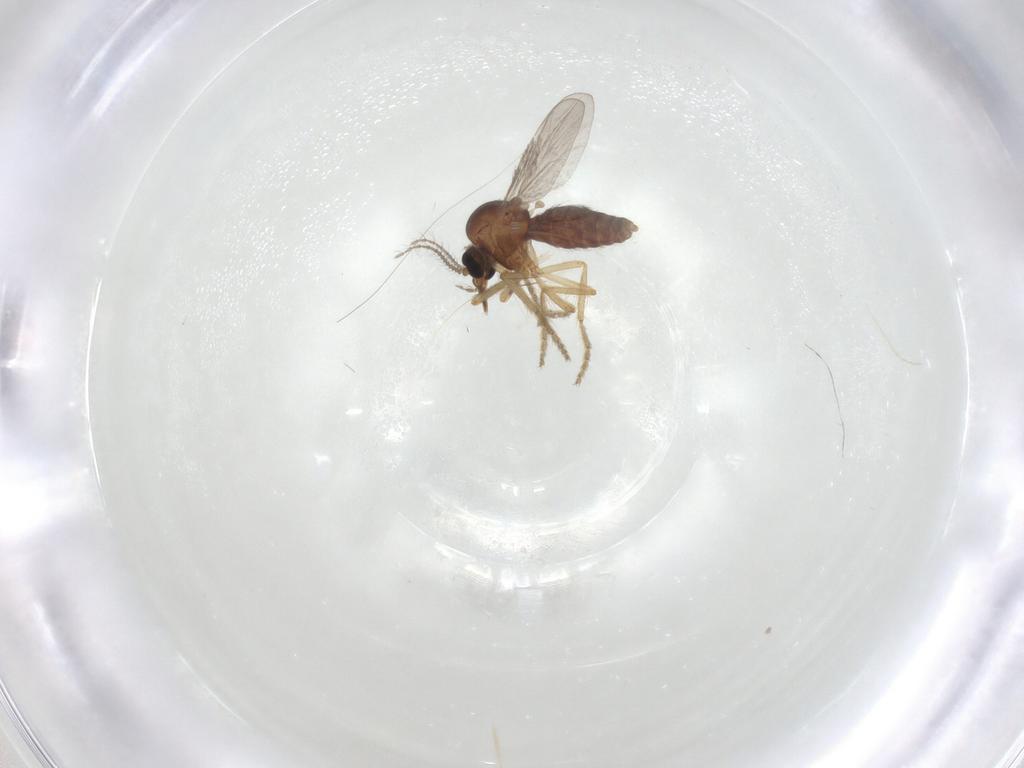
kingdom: Animalia
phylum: Arthropoda
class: Insecta
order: Diptera
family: Ceratopogonidae
